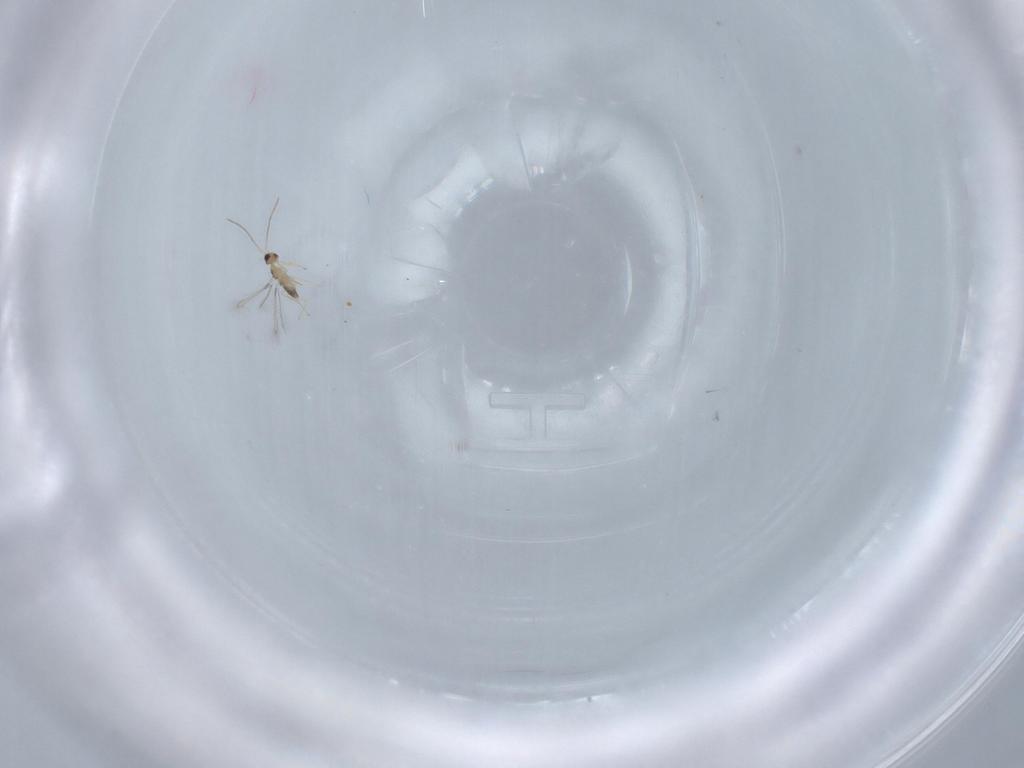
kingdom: Animalia
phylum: Arthropoda
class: Insecta
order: Hymenoptera
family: Mymaridae
